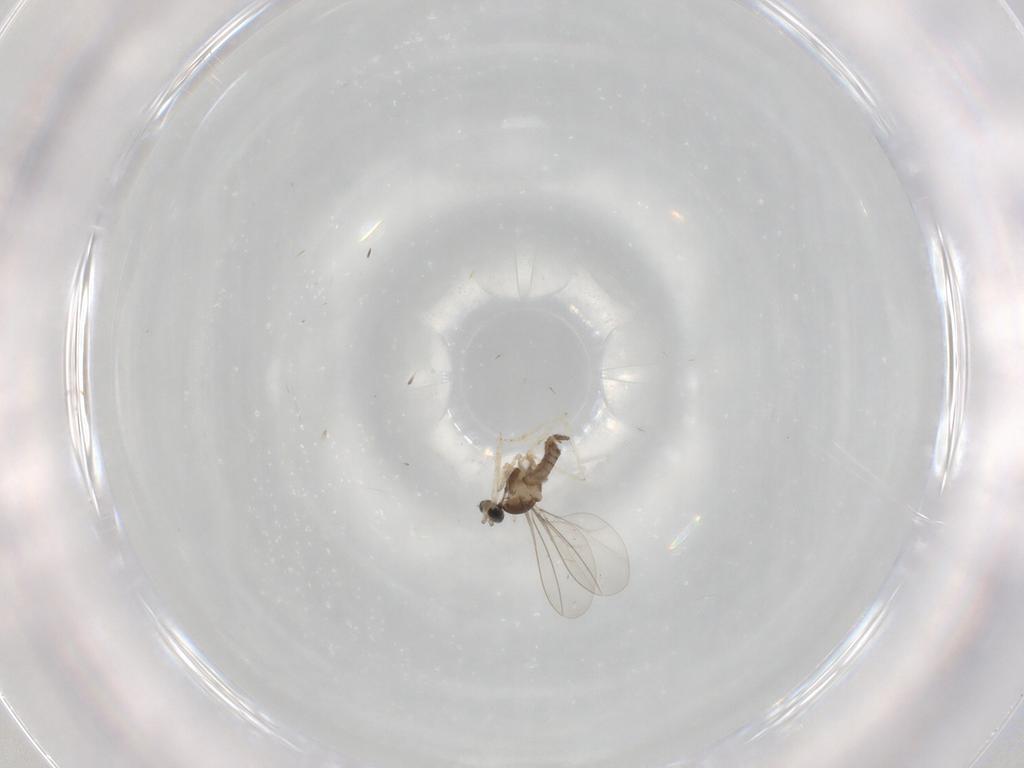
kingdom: Animalia
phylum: Arthropoda
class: Insecta
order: Diptera
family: Cecidomyiidae
